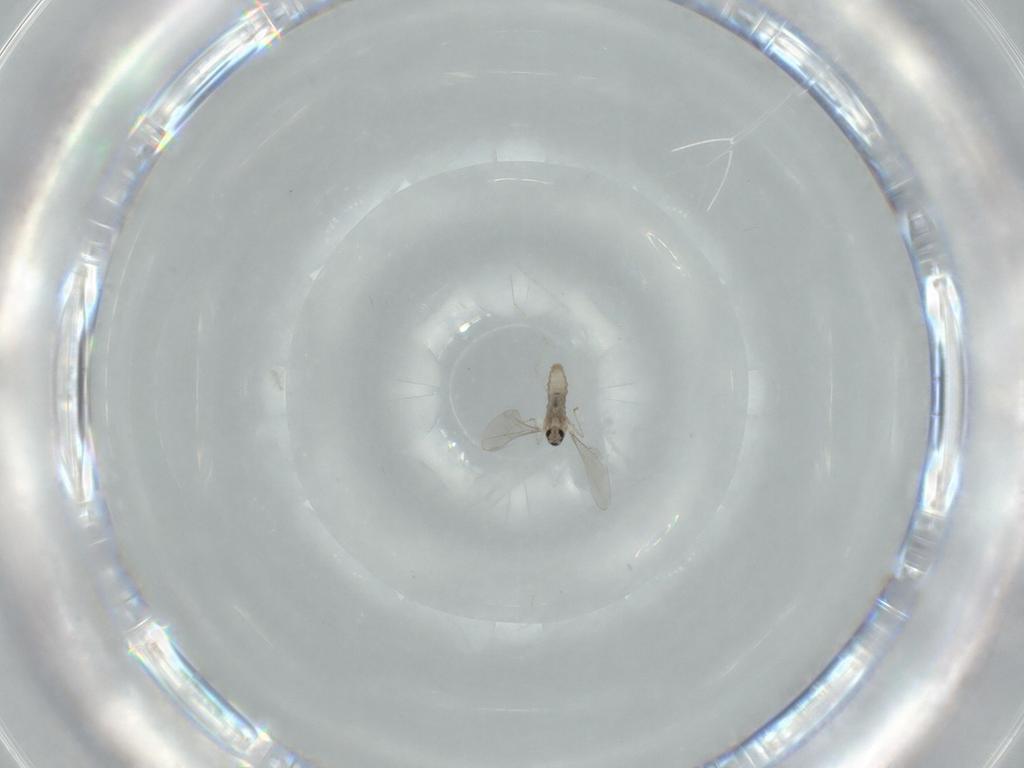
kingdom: Animalia
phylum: Arthropoda
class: Insecta
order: Diptera
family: Cecidomyiidae
